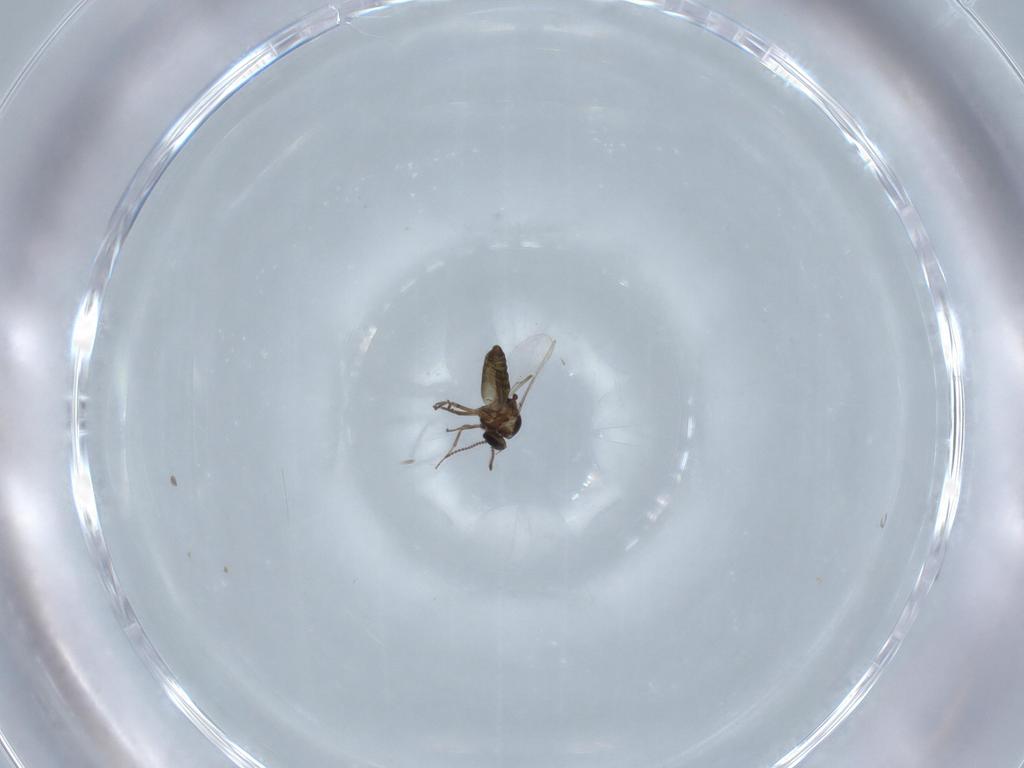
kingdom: Animalia
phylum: Arthropoda
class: Insecta
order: Diptera
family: Ceratopogonidae
